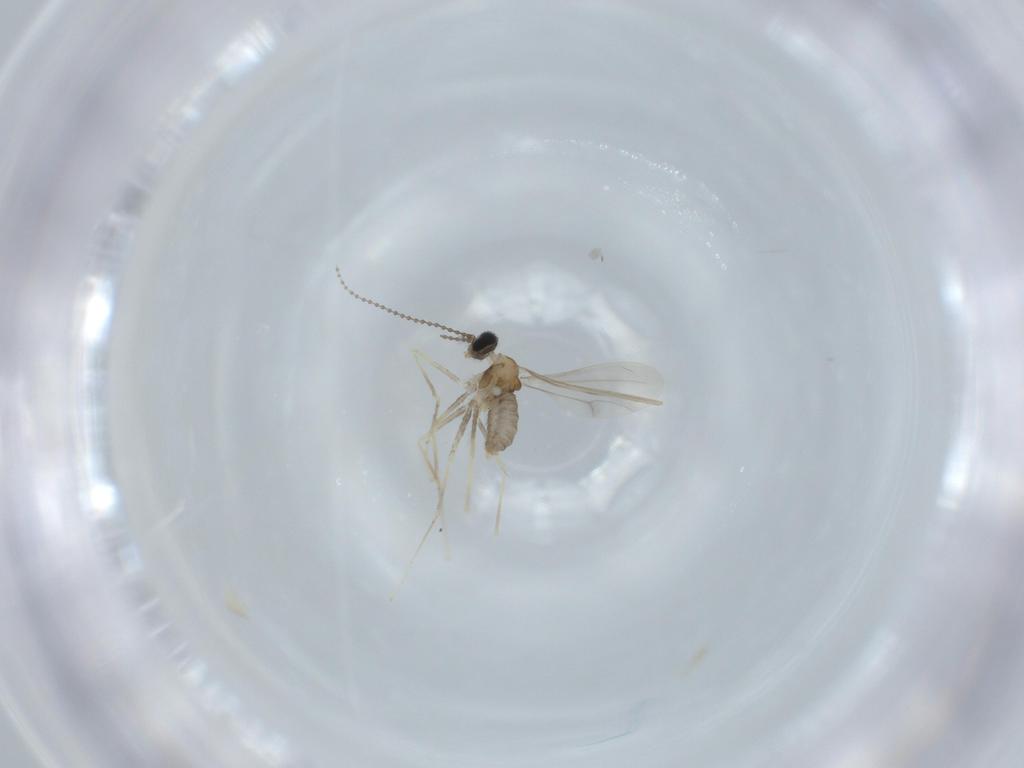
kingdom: Animalia
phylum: Arthropoda
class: Insecta
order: Diptera
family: Cecidomyiidae
